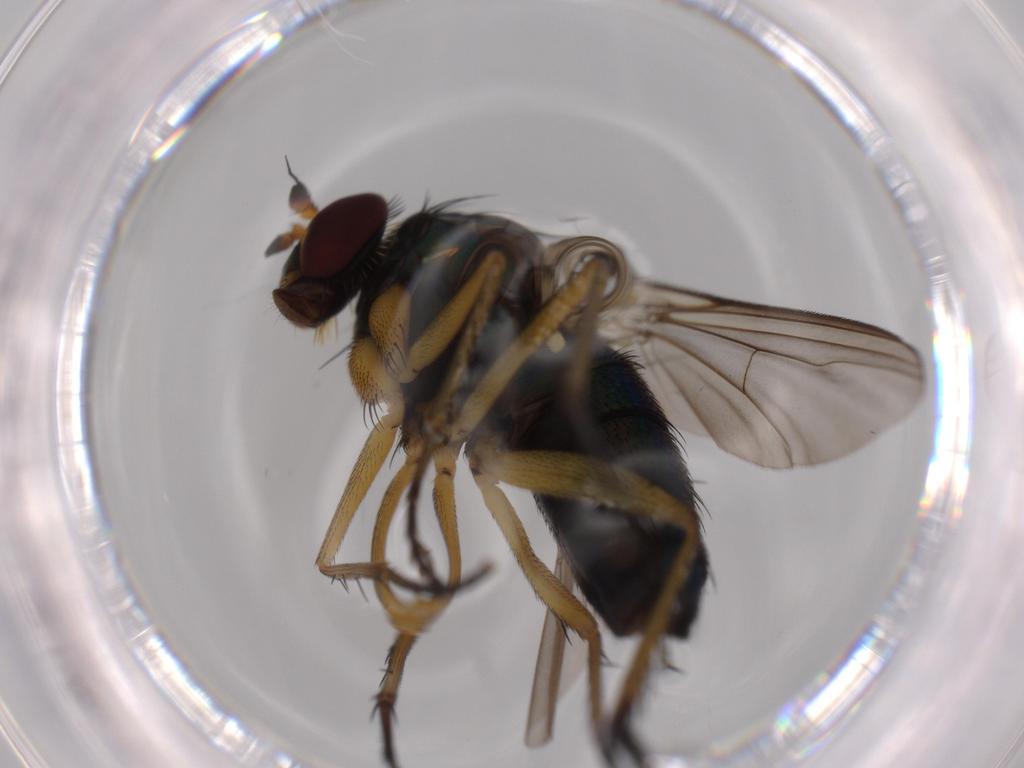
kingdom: Animalia
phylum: Arthropoda
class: Insecta
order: Diptera
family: Dolichopodidae
